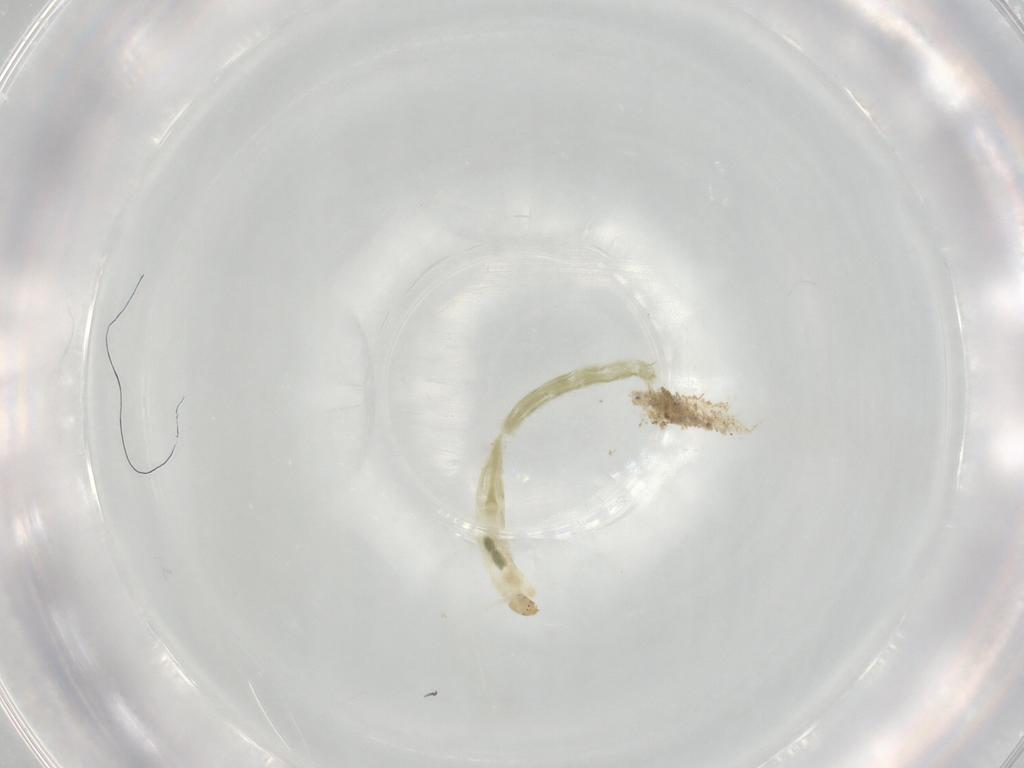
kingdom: Animalia
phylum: Arthropoda
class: Insecta
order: Diptera
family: Chironomidae
